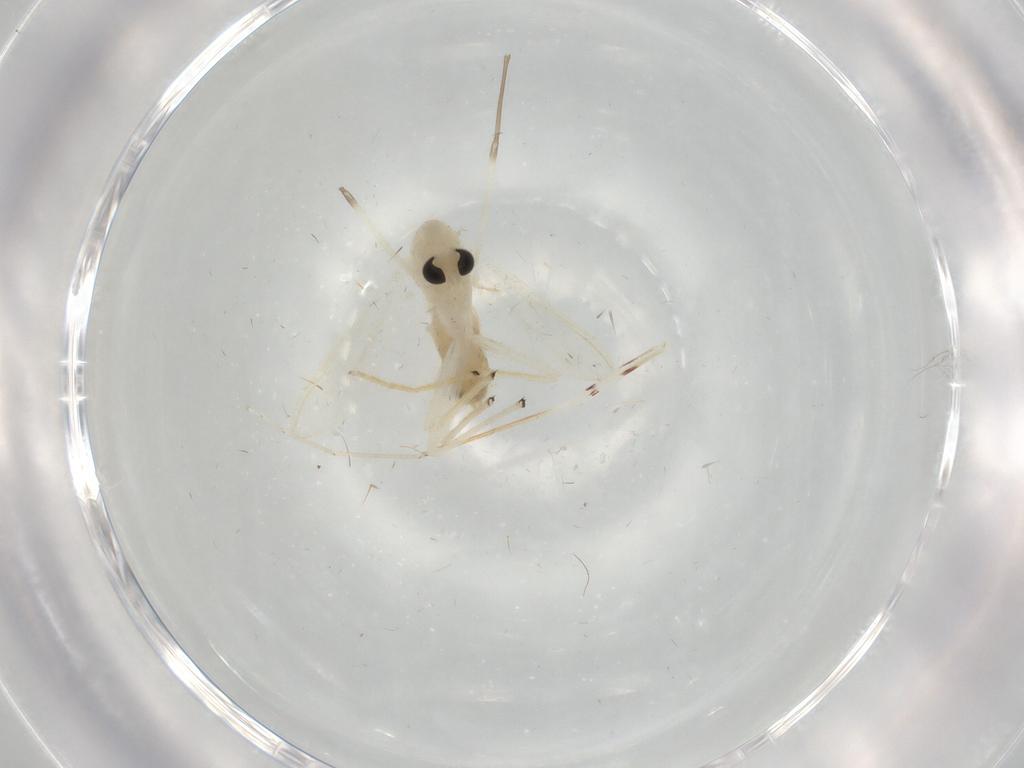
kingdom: Animalia
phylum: Arthropoda
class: Insecta
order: Diptera
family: Chironomidae
